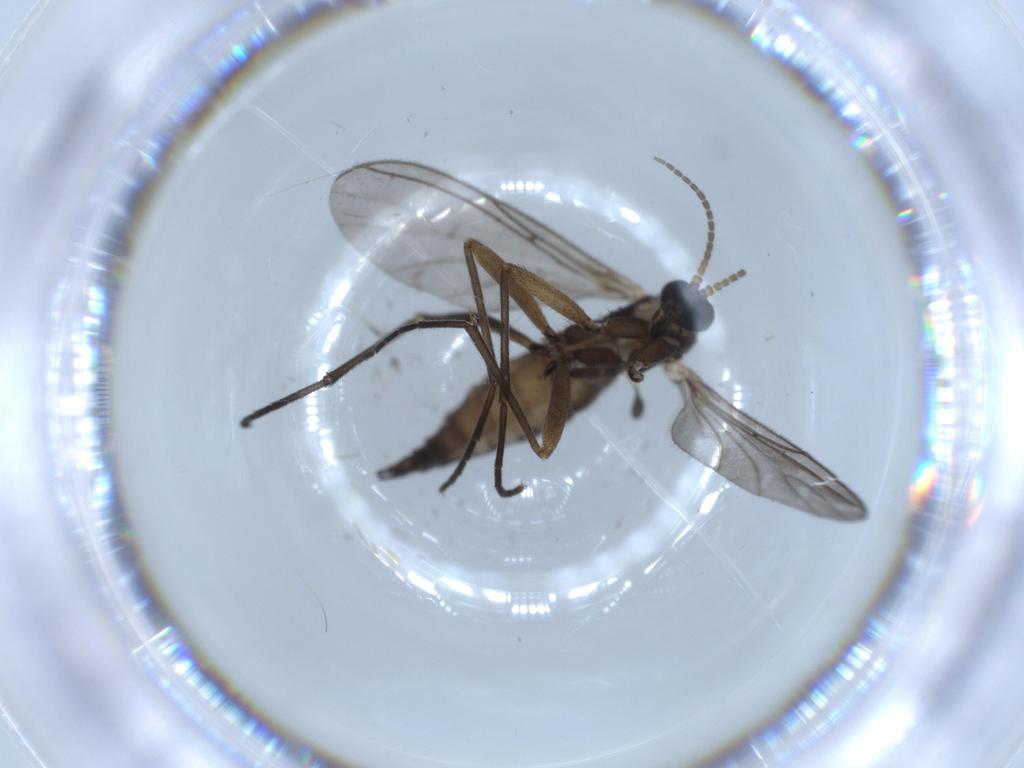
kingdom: Animalia
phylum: Arthropoda
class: Insecta
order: Diptera
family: Sciaridae
